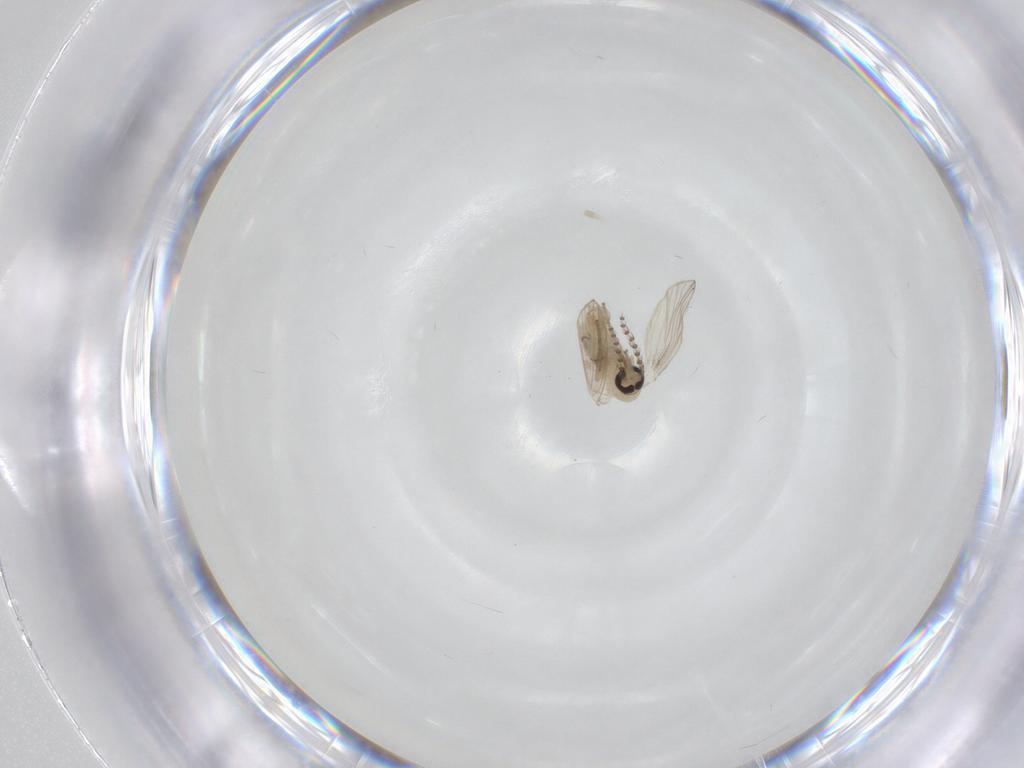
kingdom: Animalia
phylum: Arthropoda
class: Insecta
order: Diptera
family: Psychodidae
